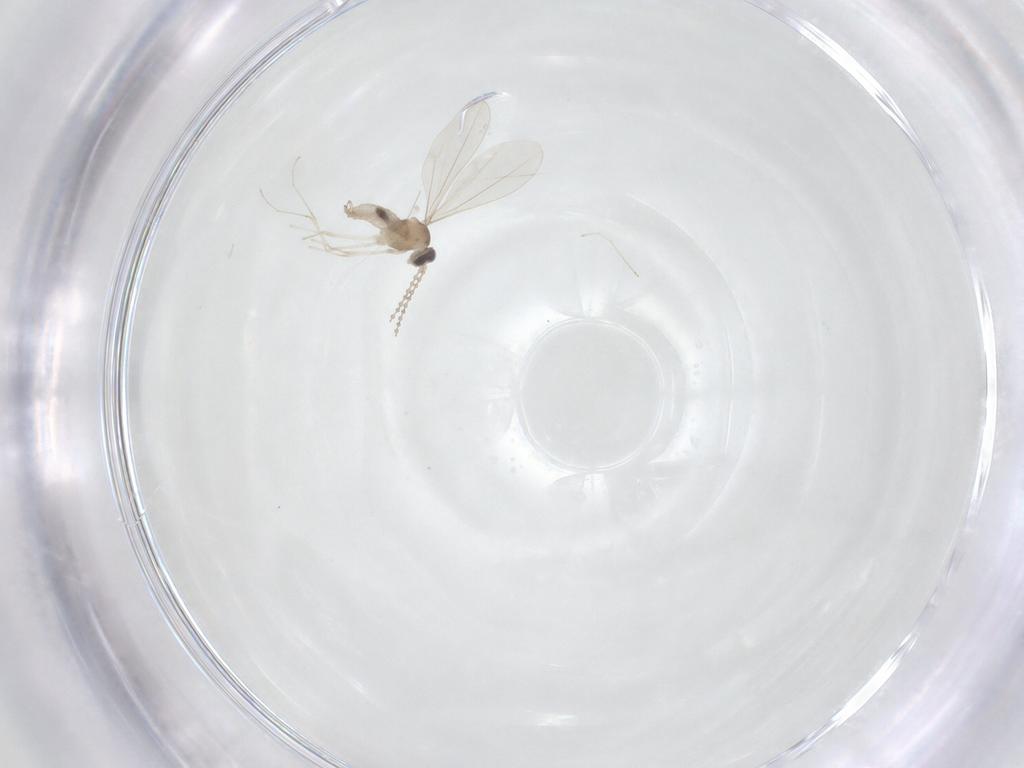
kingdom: Animalia
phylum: Arthropoda
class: Insecta
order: Diptera
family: Cecidomyiidae
